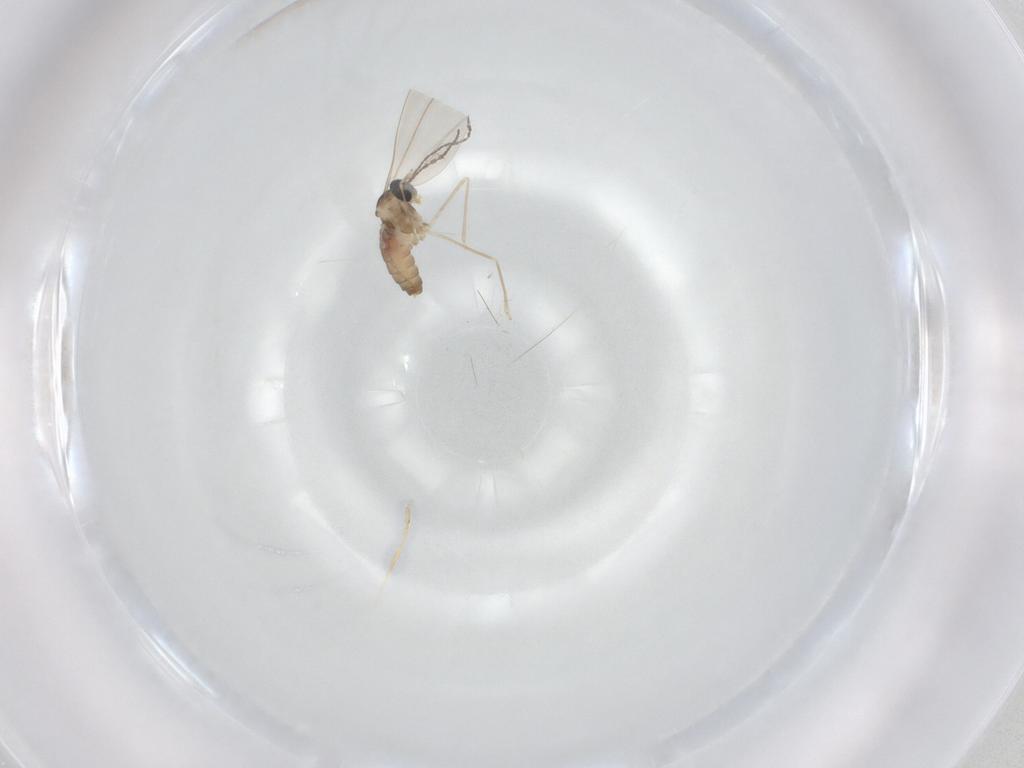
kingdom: Animalia
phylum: Arthropoda
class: Insecta
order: Diptera
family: Cecidomyiidae
